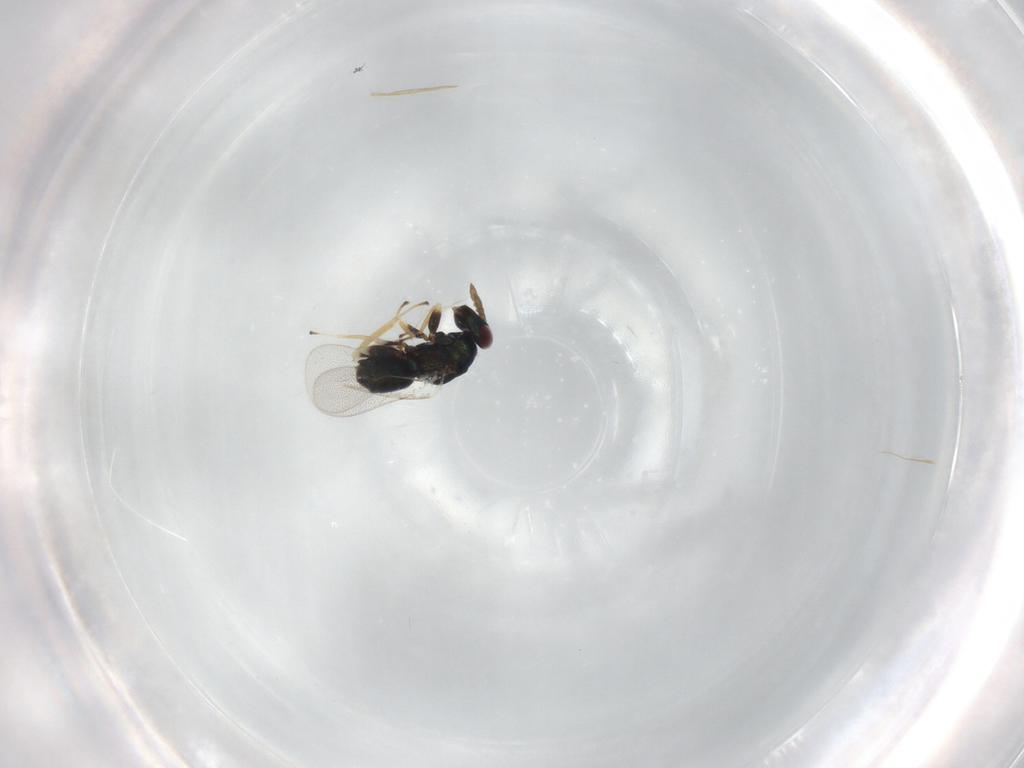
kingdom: Animalia
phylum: Arthropoda
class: Insecta
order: Hymenoptera
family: Eulophidae
